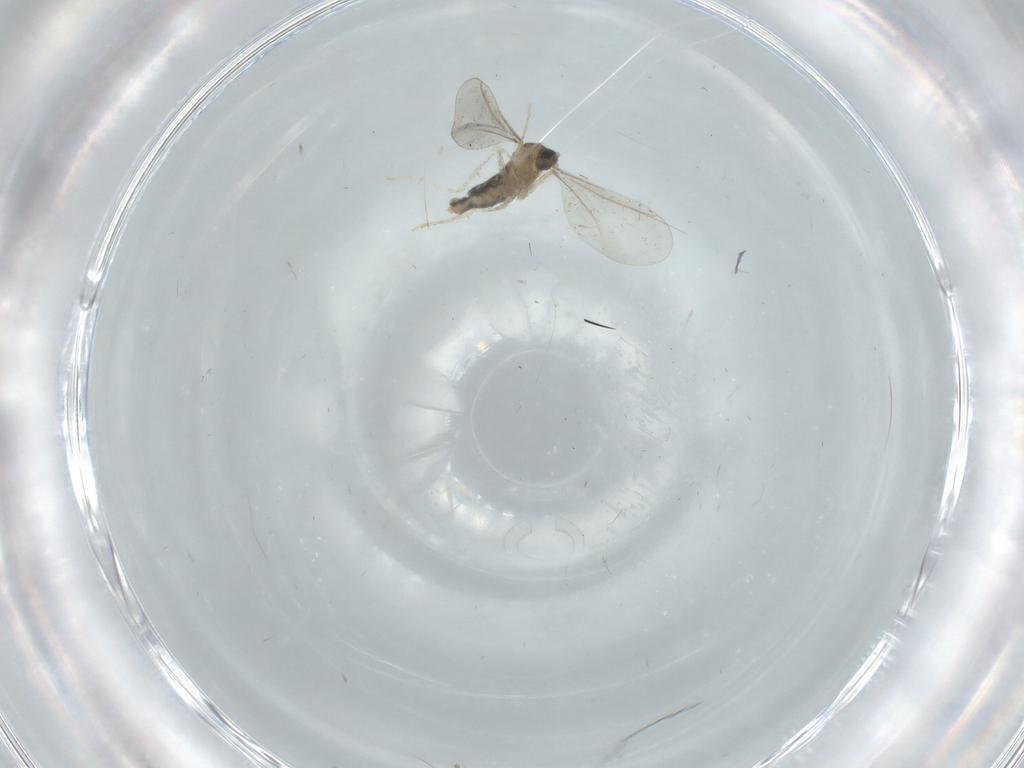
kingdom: Animalia
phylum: Arthropoda
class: Insecta
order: Diptera
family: Cecidomyiidae
